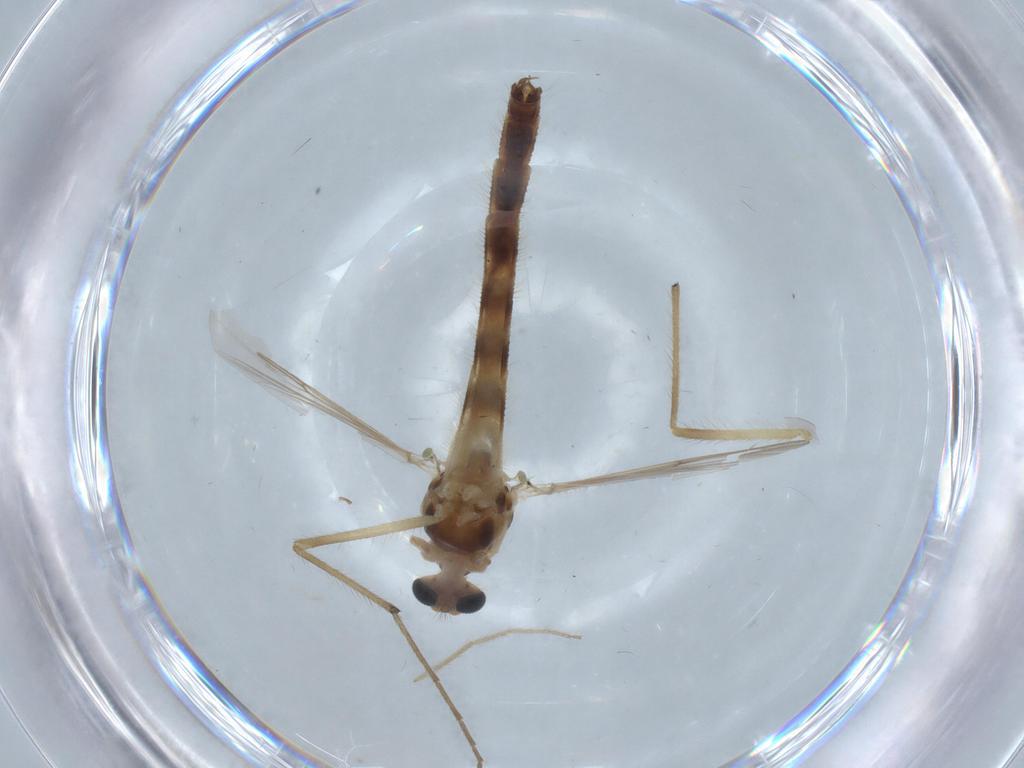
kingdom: Animalia
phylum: Arthropoda
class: Insecta
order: Diptera
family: Chironomidae
